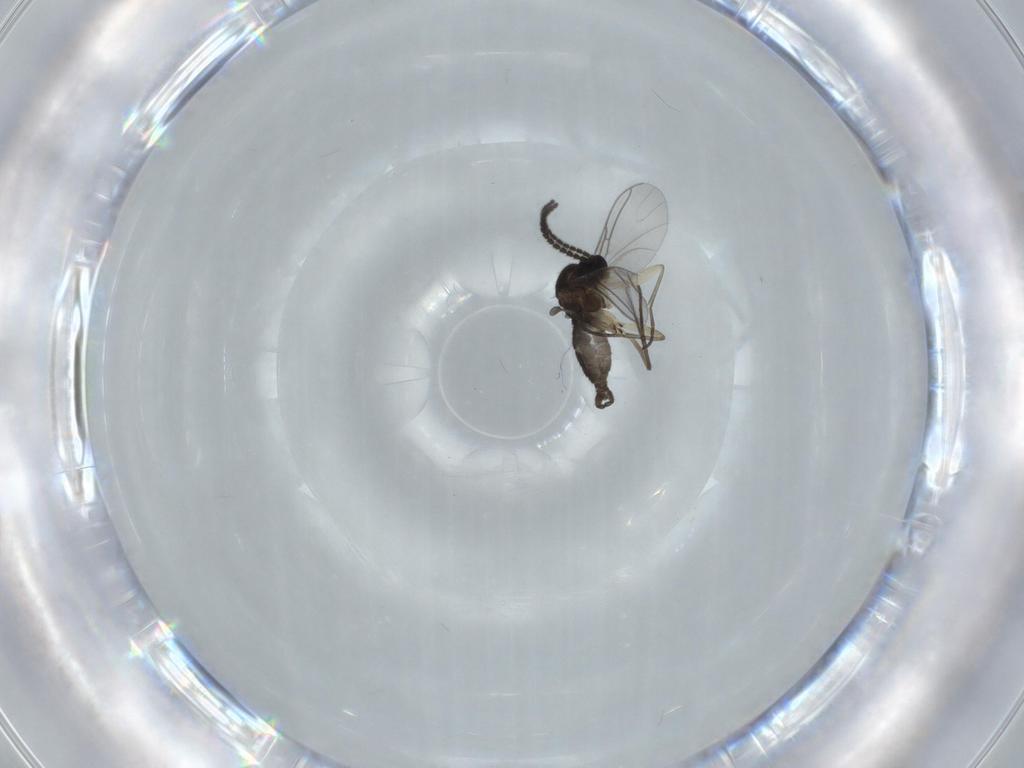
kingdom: Animalia
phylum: Arthropoda
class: Insecta
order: Diptera
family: Sciaridae
